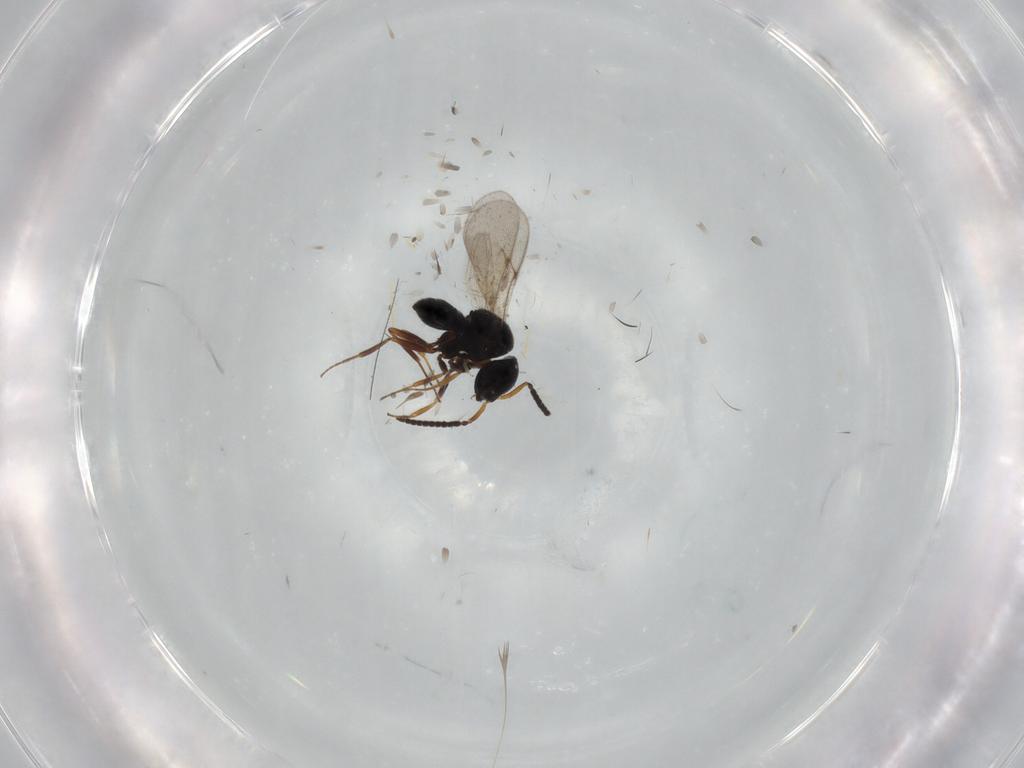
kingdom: Animalia
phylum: Arthropoda
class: Insecta
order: Hymenoptera
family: Scelionidae
